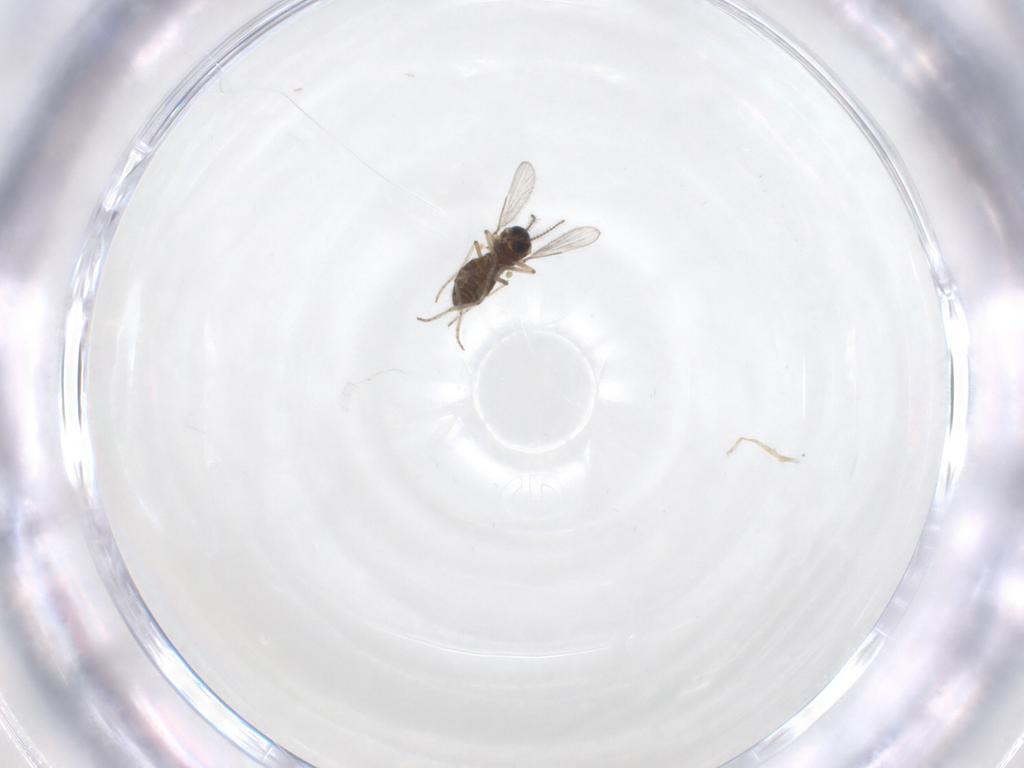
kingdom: Animalia
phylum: Arthropoda
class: Insecta
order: Diptera
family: Ceratopogonidae
